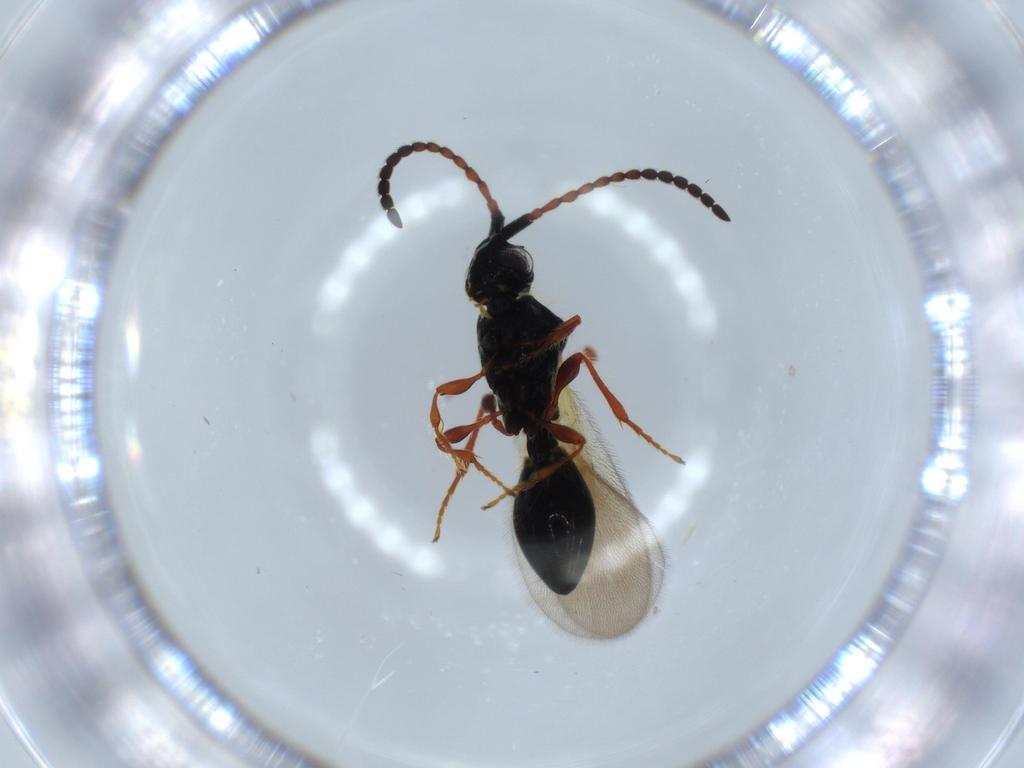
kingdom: Animalia
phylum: Arthropoda
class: Insecta
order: Hymenoptera
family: Diapriidae
